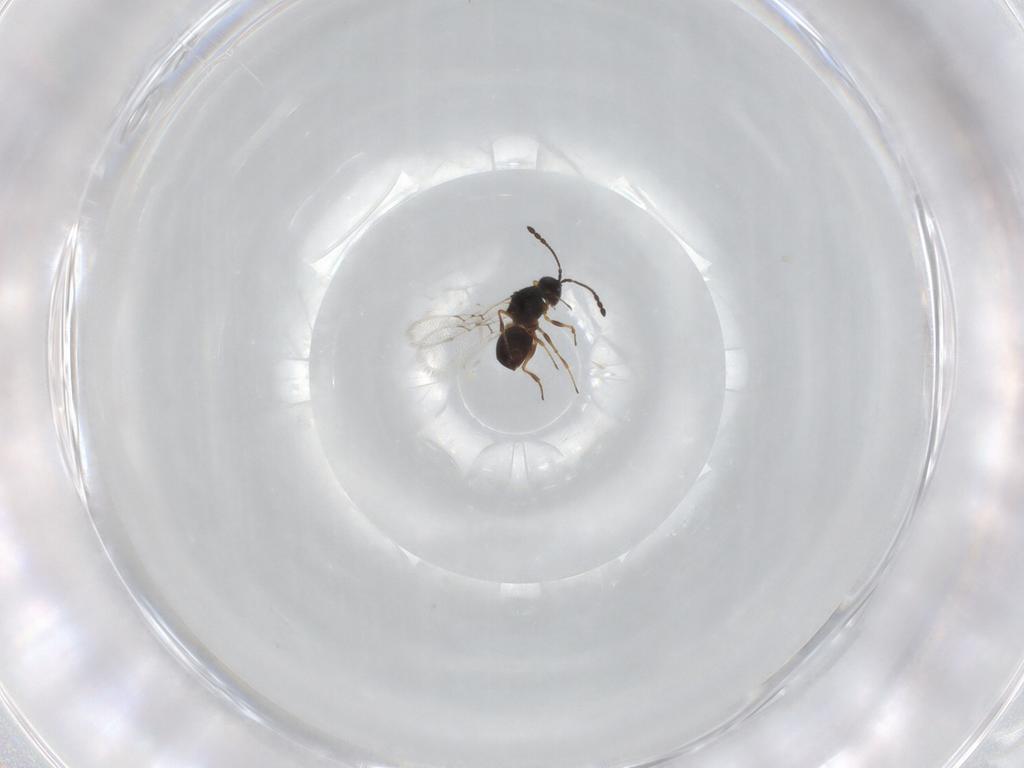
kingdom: Animalia
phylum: Arthropoda
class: Insecta
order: Hymenoptera
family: Figitidae
